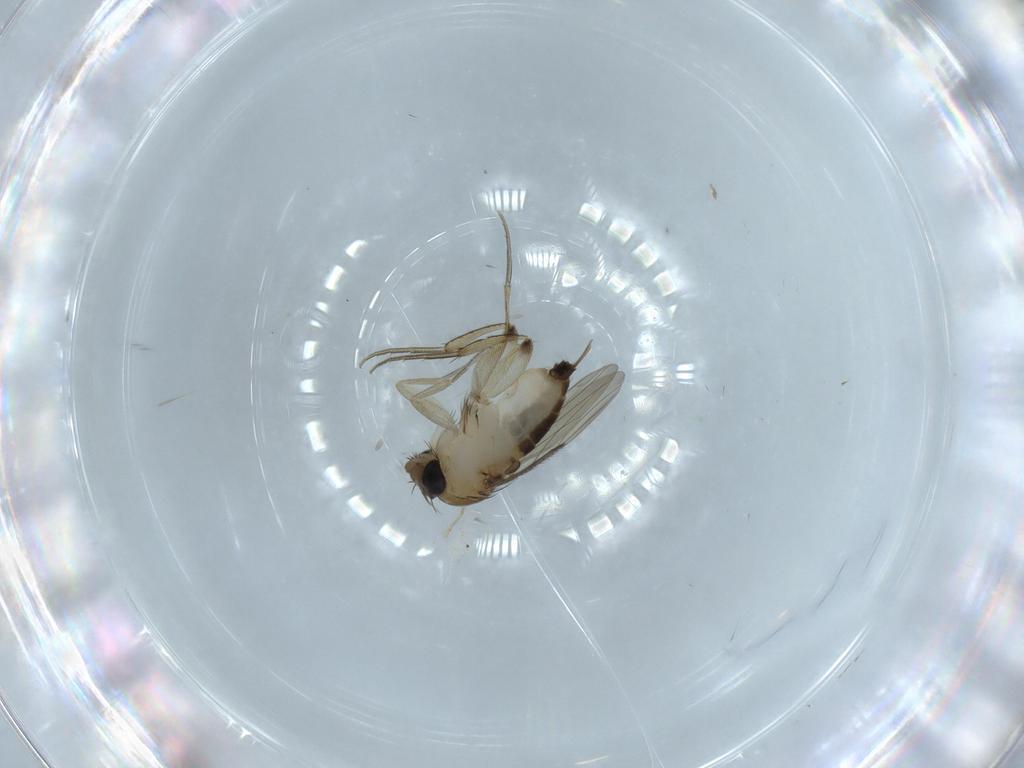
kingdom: Animalia
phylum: Arthropoda
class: Insecta
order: Diptera
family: Phoridae
